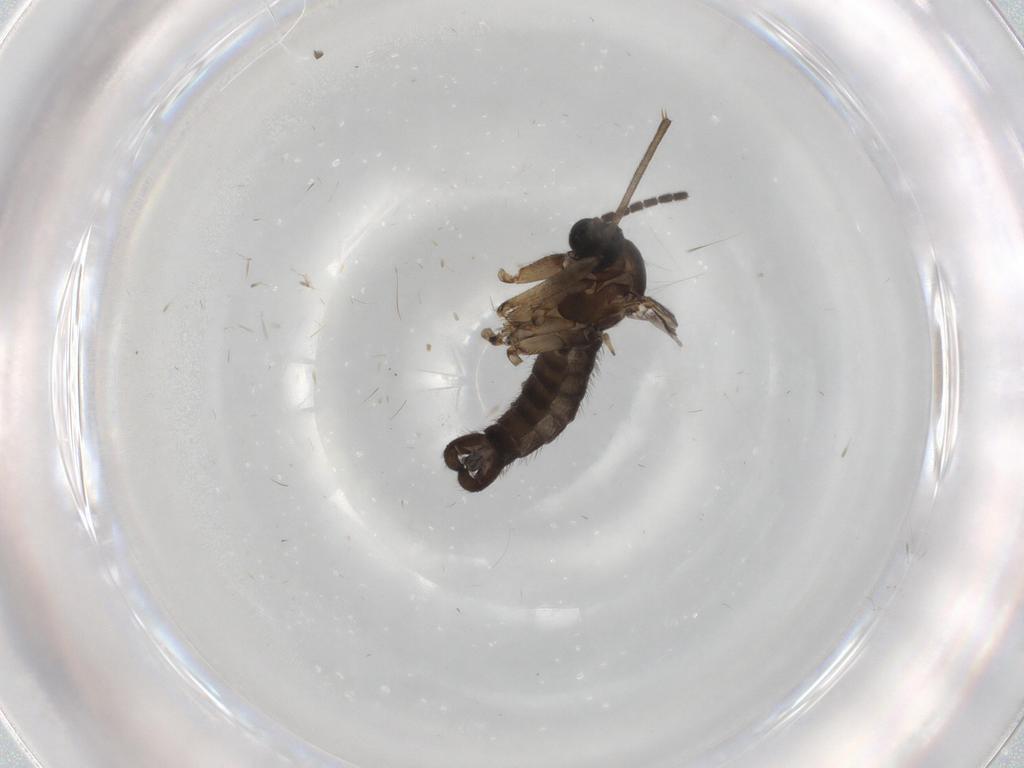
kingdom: Animalia
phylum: Arthropoda
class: Insecta
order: Diptera
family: Sciaridae
